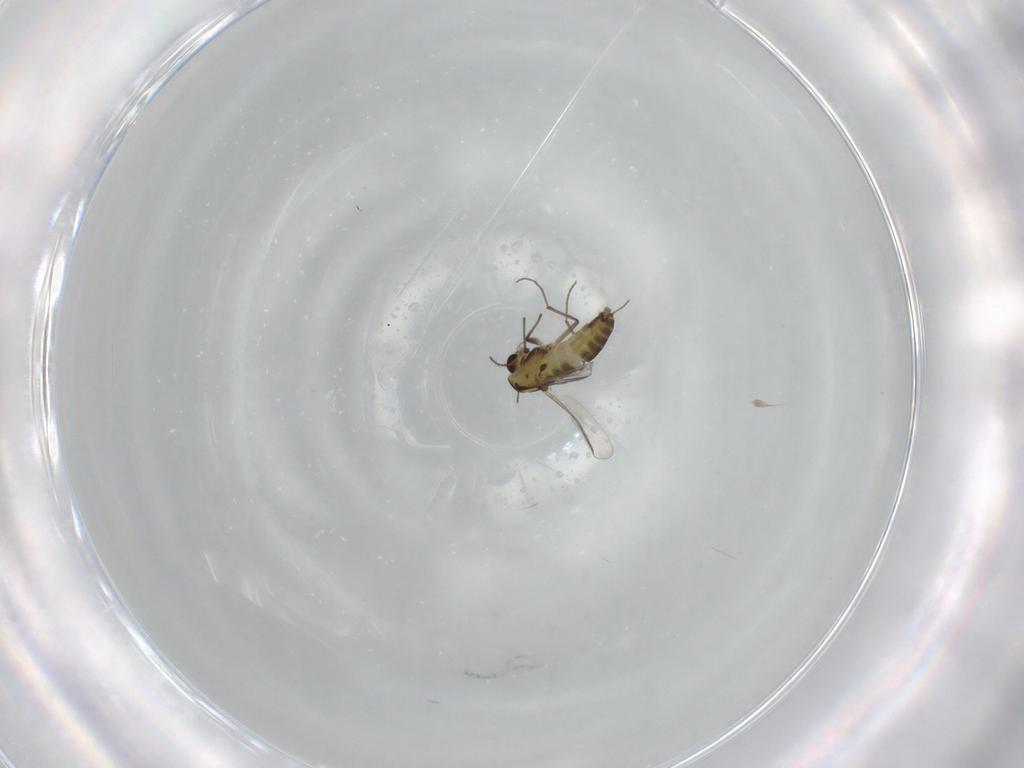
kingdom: Animalia
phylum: Arthropoda
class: Insecta
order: Diptera
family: Chironomidae
